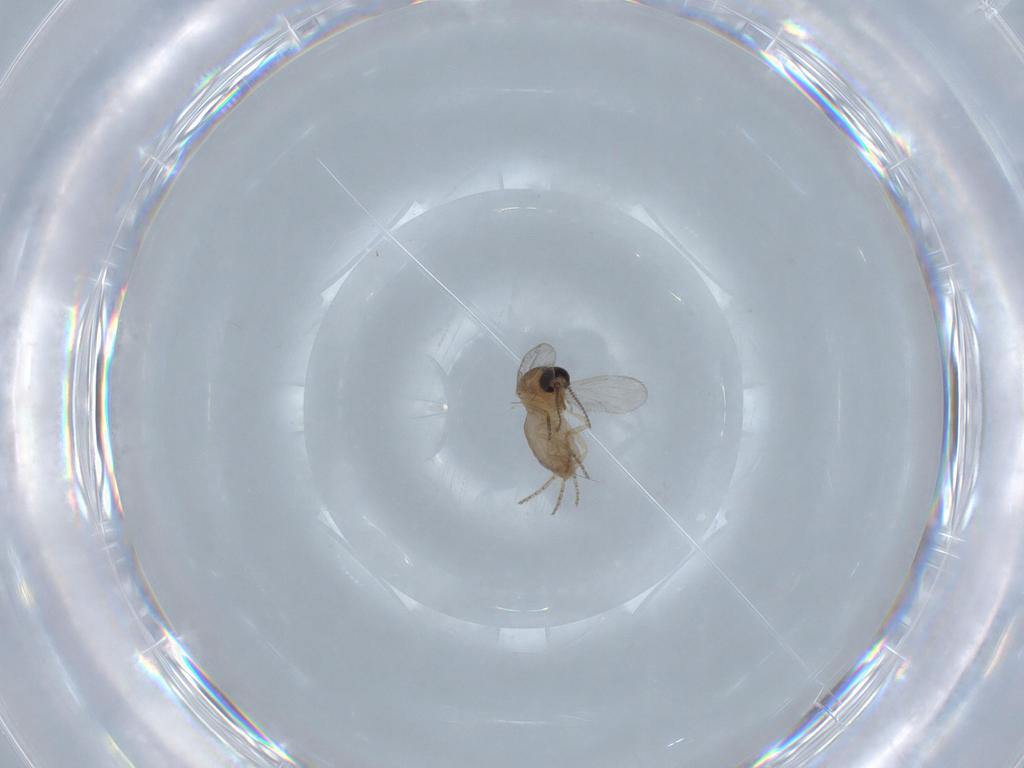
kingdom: Animalia
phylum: Arthropoda
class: Insecta
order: Diptera
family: Ceratopogonidae
